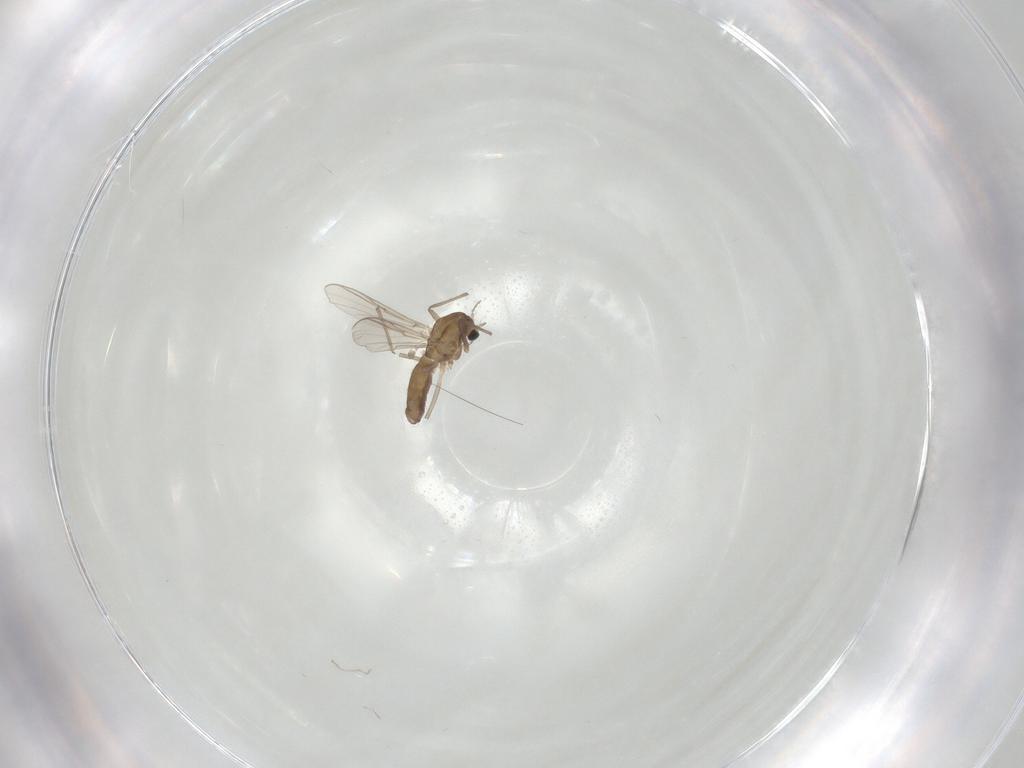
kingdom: Animalia
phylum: Arthropoda
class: Insecta
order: Diptera
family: Chironomidae
